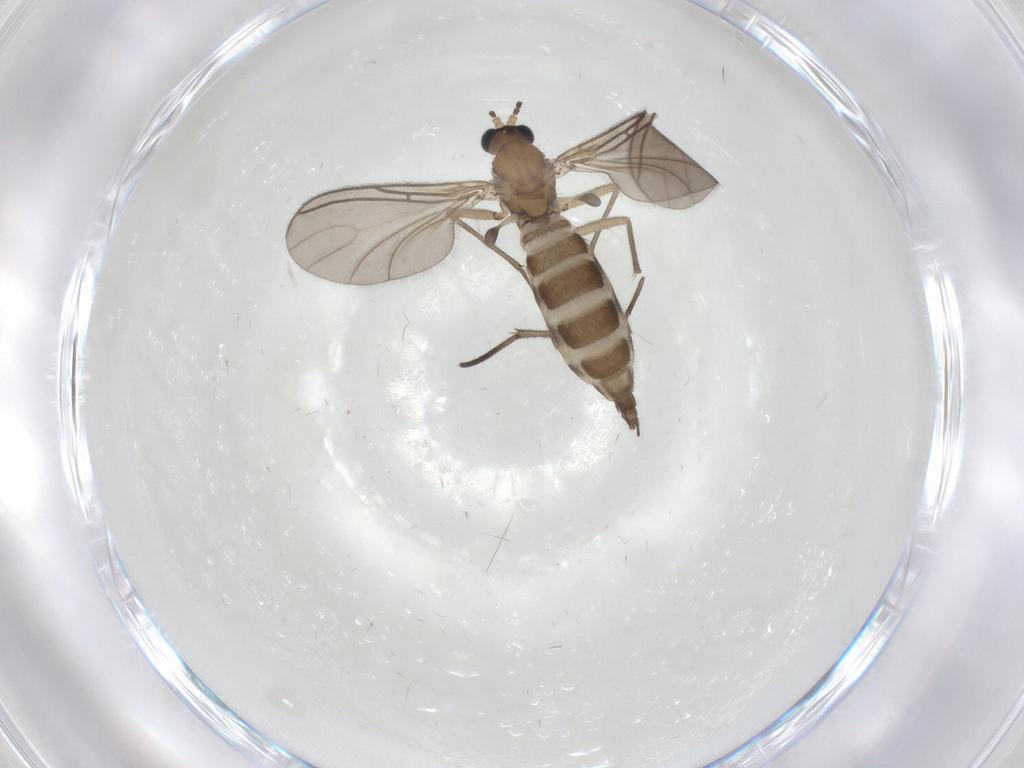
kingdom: Animalia
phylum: Arthropoda
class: Insecta
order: Diptera
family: Sciaridae
